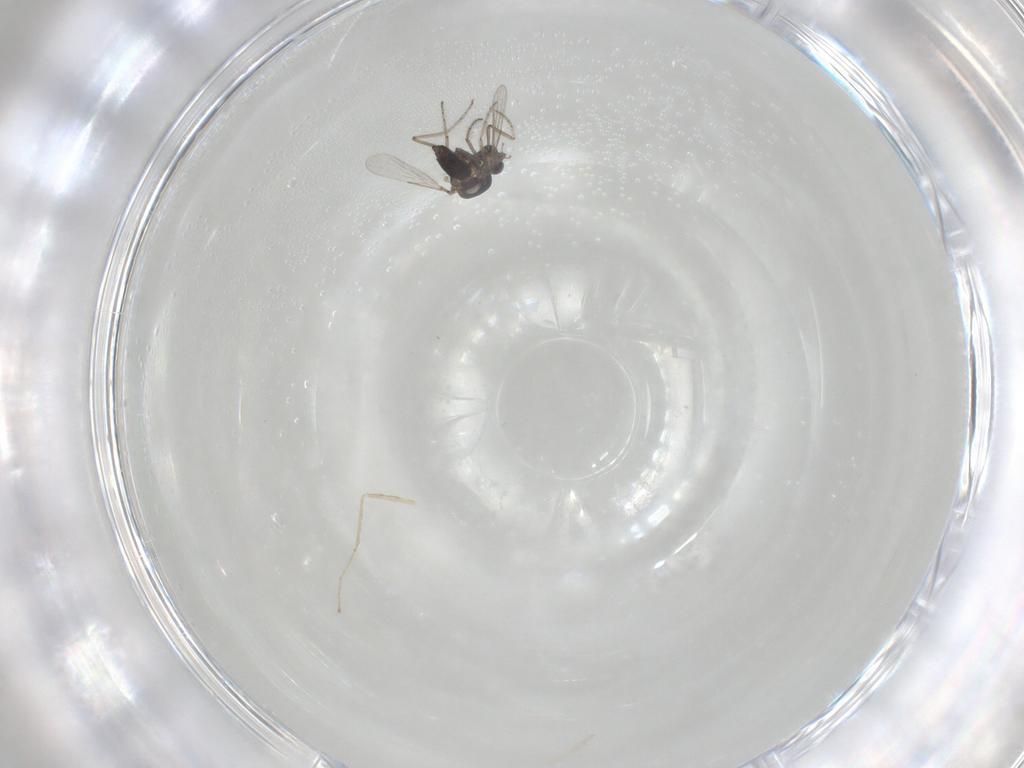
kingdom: Animalia
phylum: Arthropoda
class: Insecta
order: Diptera
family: Ceratopogonidae
